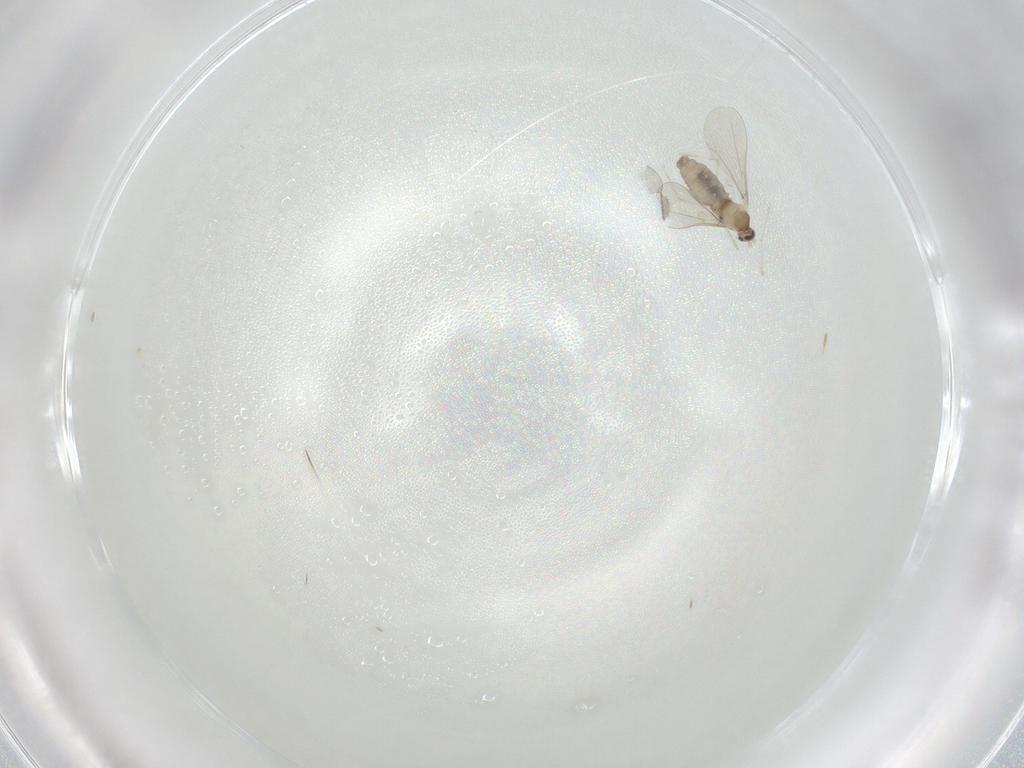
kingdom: Animalia
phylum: Arthropoda
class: Insecta
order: Diptera
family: Cecidomyiidae
